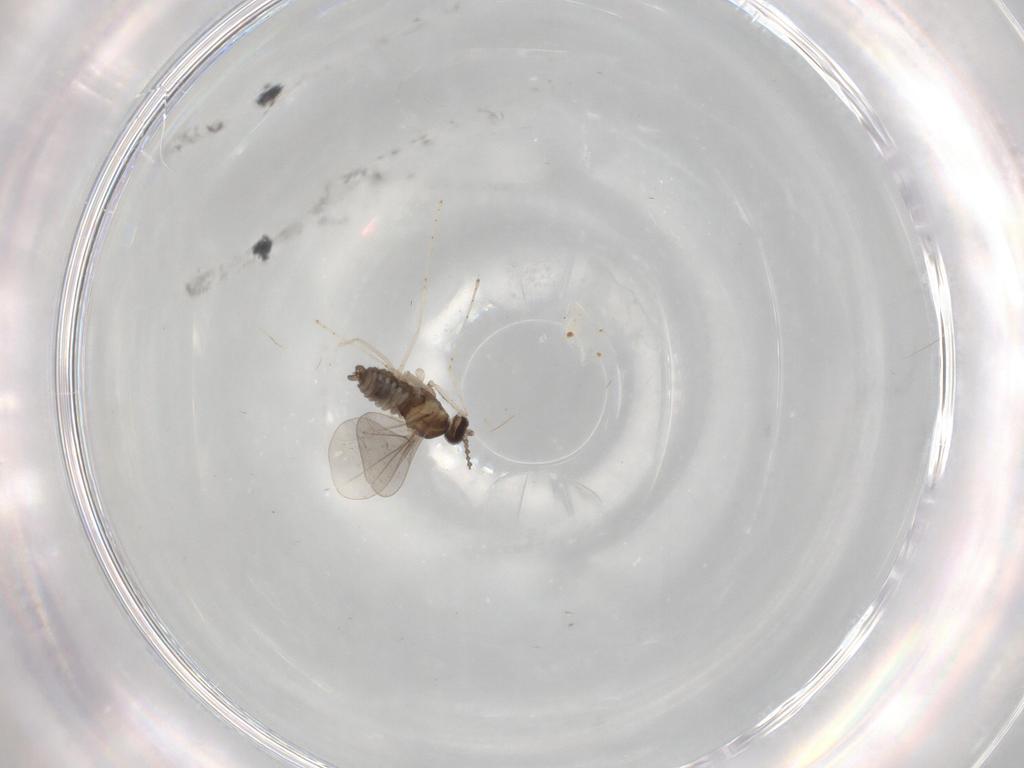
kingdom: Animalia
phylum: Arthropoda
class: Insecta
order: Diptera
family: Cecidomyiidae
